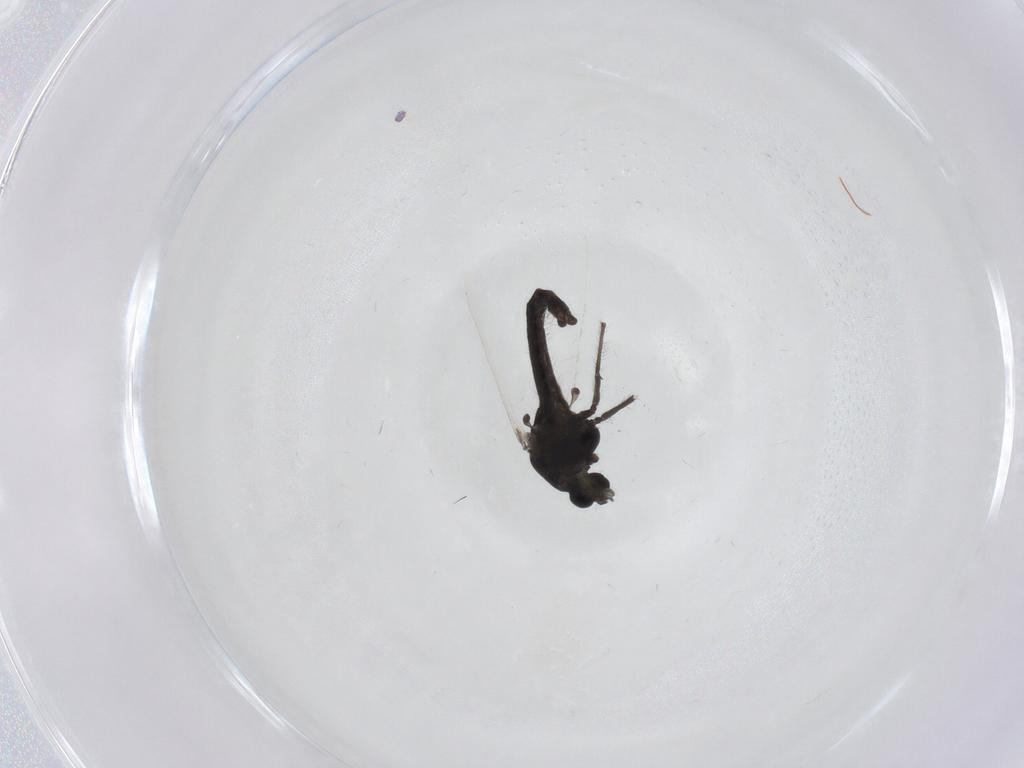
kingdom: Animalia
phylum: Arthropoda
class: Insecta
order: Diptera
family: Chironomidae
